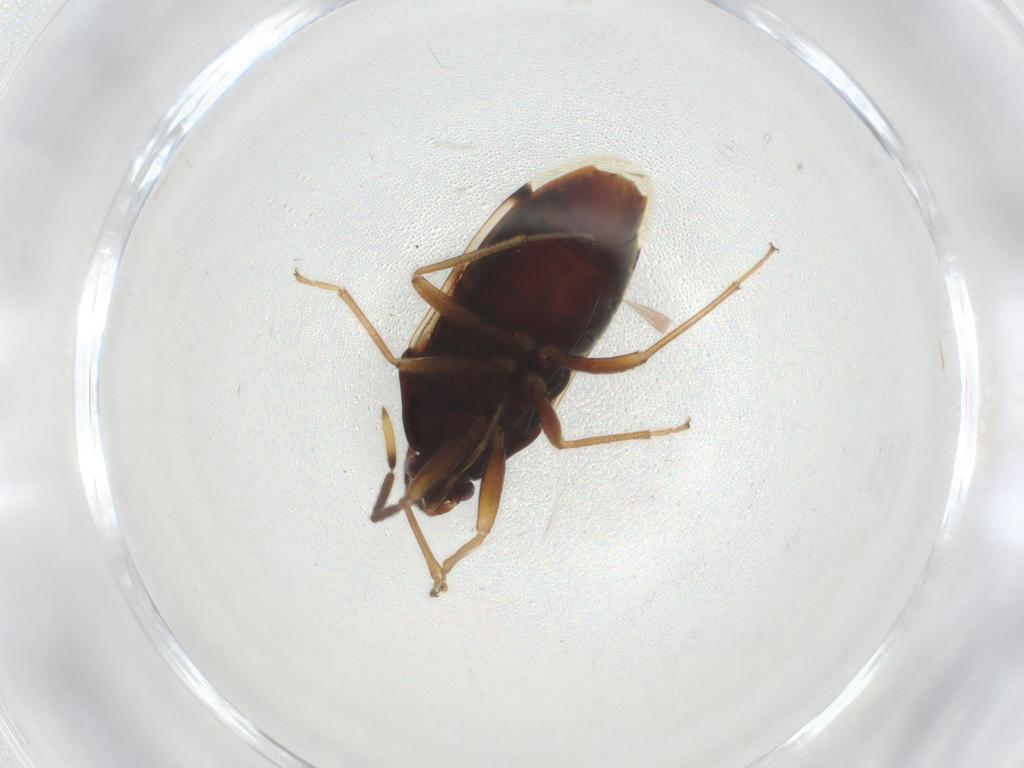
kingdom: Animalia
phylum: Arthropoda
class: Insecta
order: Hemiptera
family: Rhyparochromidae
